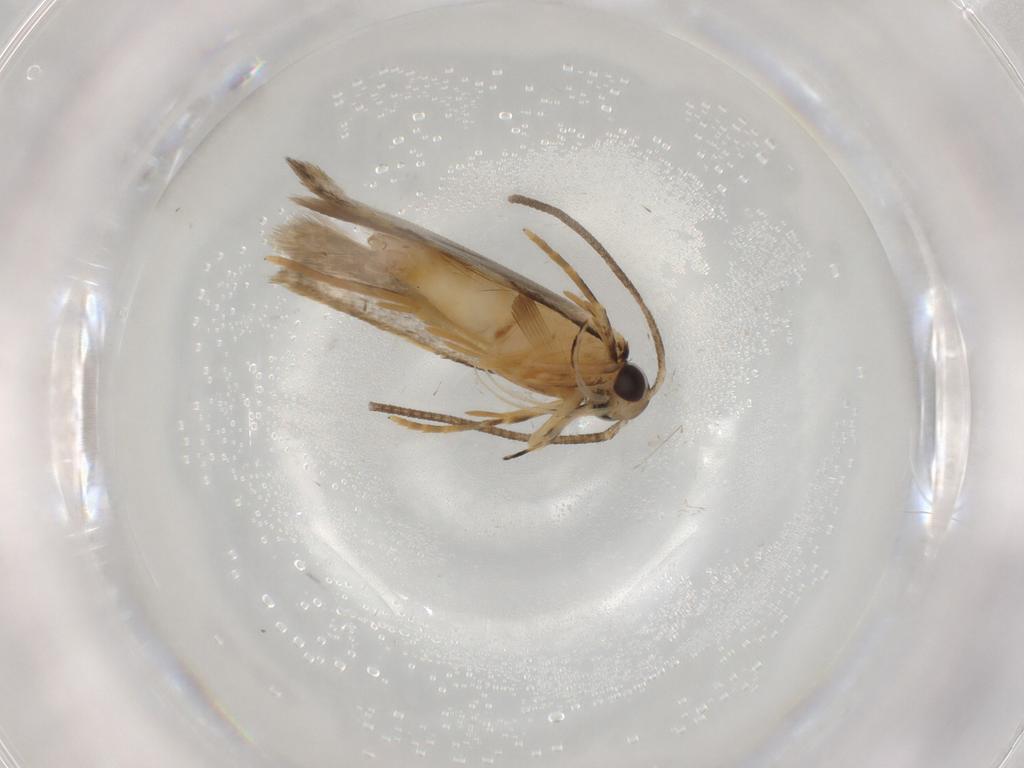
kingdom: Animalia
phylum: Arthropoda
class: Insecta
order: Lepidoptera
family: Autostichidae
